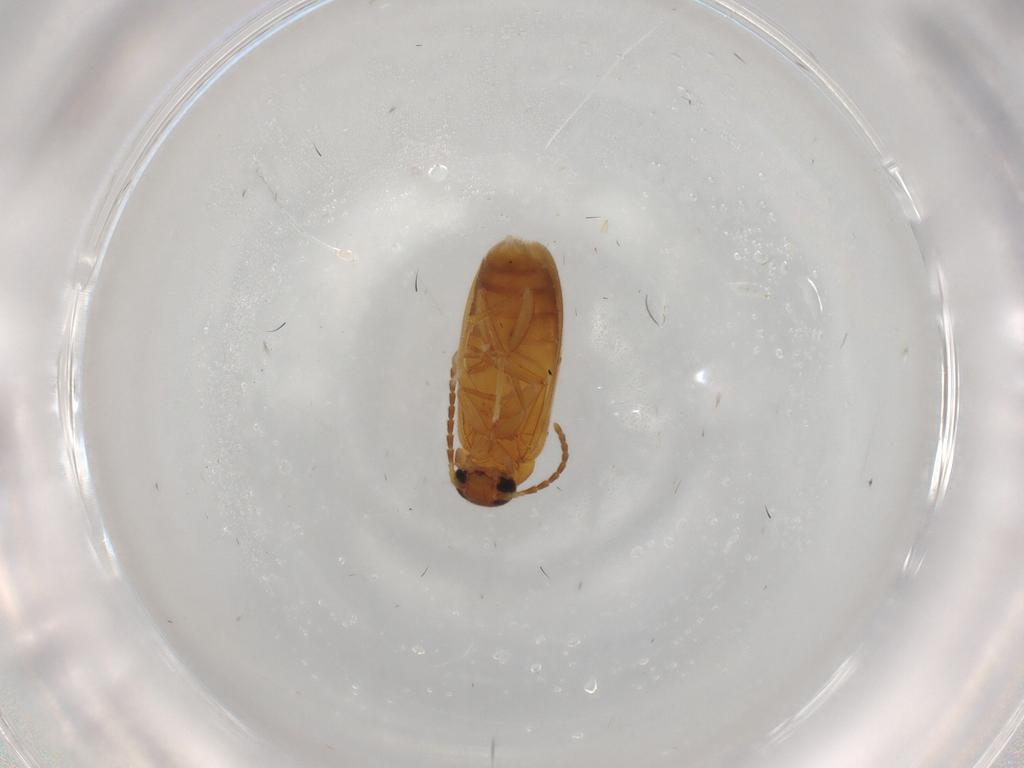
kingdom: Animalia
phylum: Arthropoda
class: Insecta
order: Coleoptera
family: Scraptiidae
